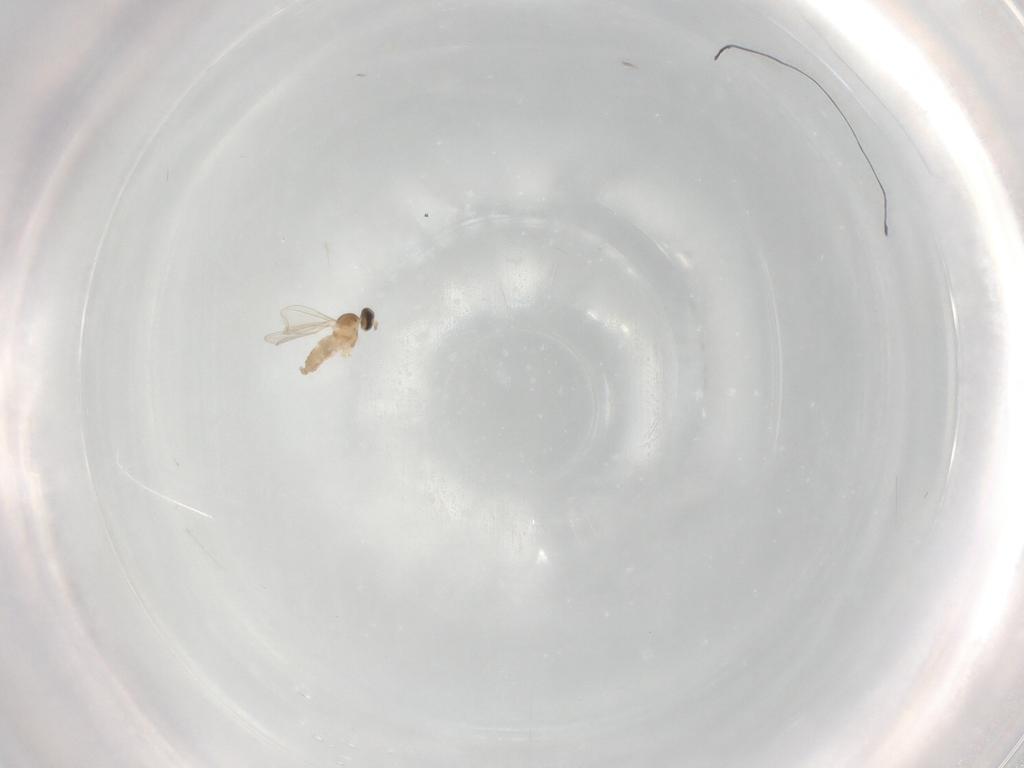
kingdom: Animalia
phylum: Arthropoda
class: Insecta
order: Diptera
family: Cecidomyiidae
